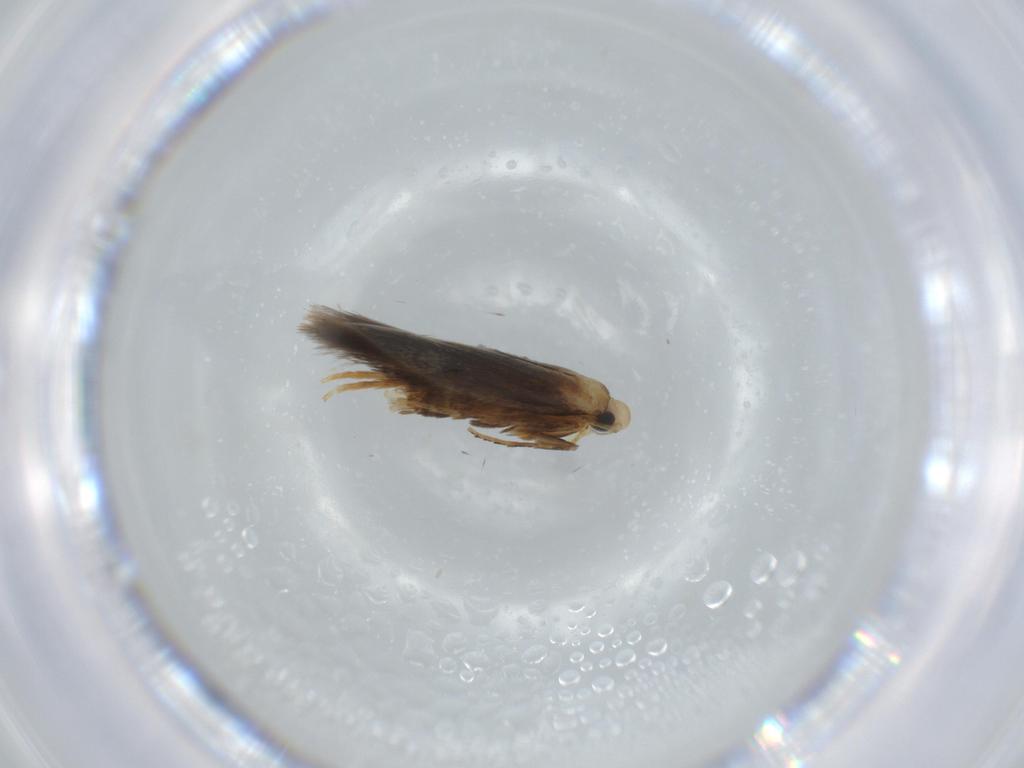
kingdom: Animalia
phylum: Arthropoda
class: Insecta
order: Lepidoptera
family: Tischeriidae
